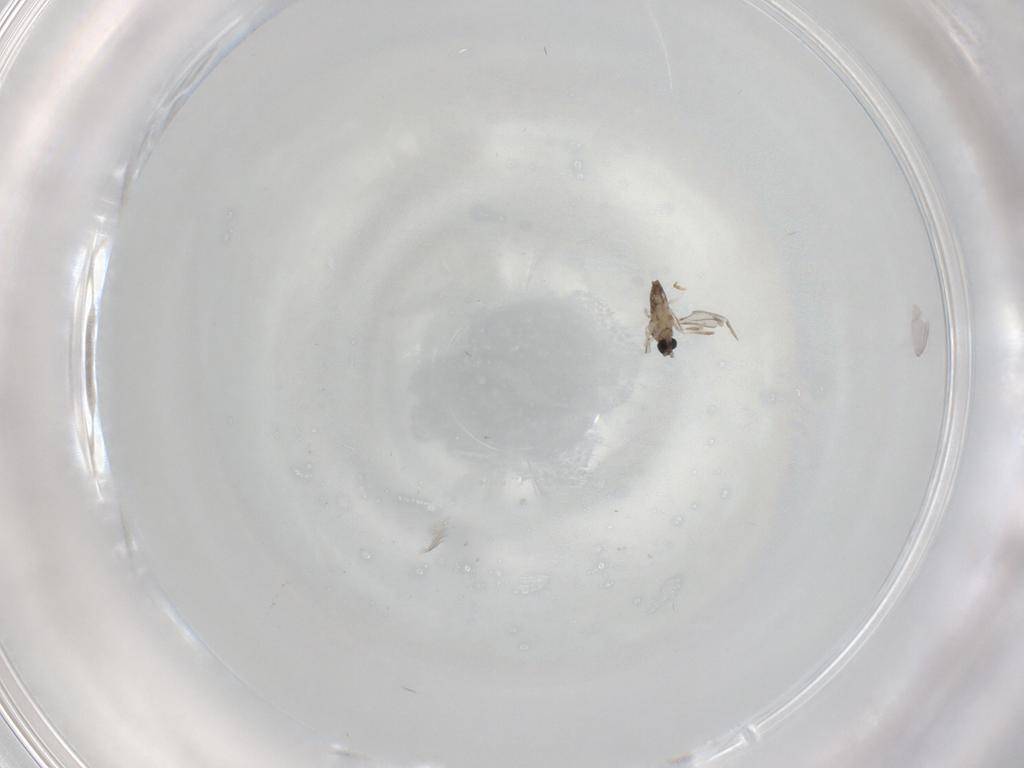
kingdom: Animalia
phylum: Arthropoda
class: Insecta
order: Diptera
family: Cecidomyiidae
